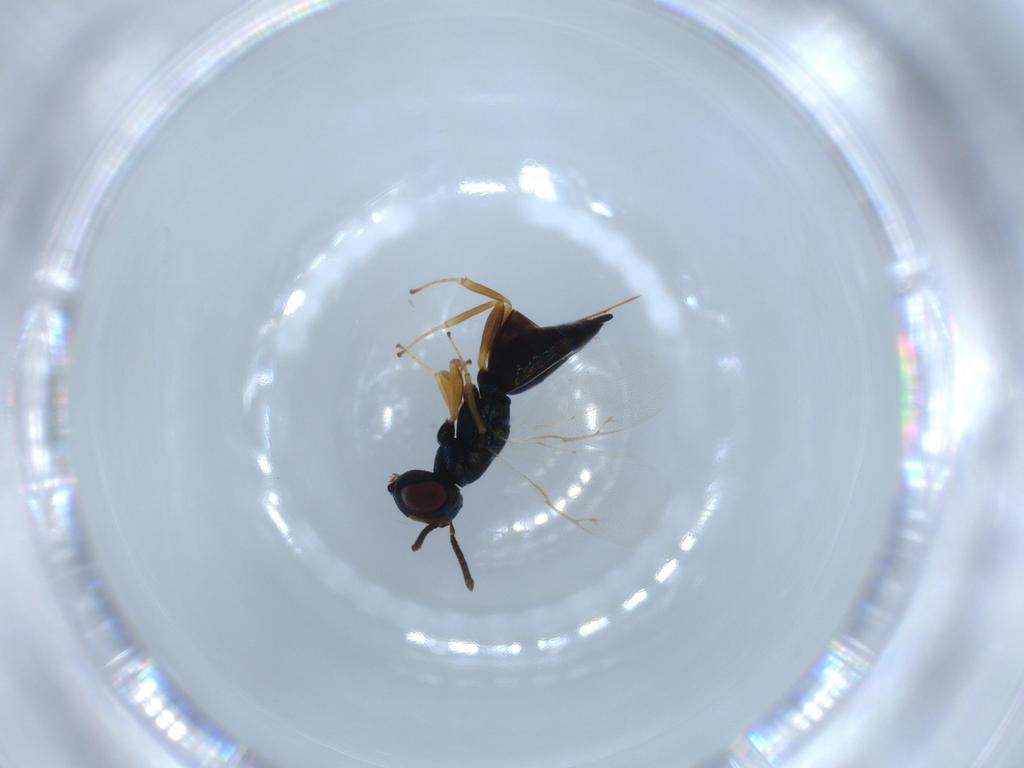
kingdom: Animalia
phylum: Arthropoda
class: Insecta
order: Hymenoptera
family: Pteromalidae
